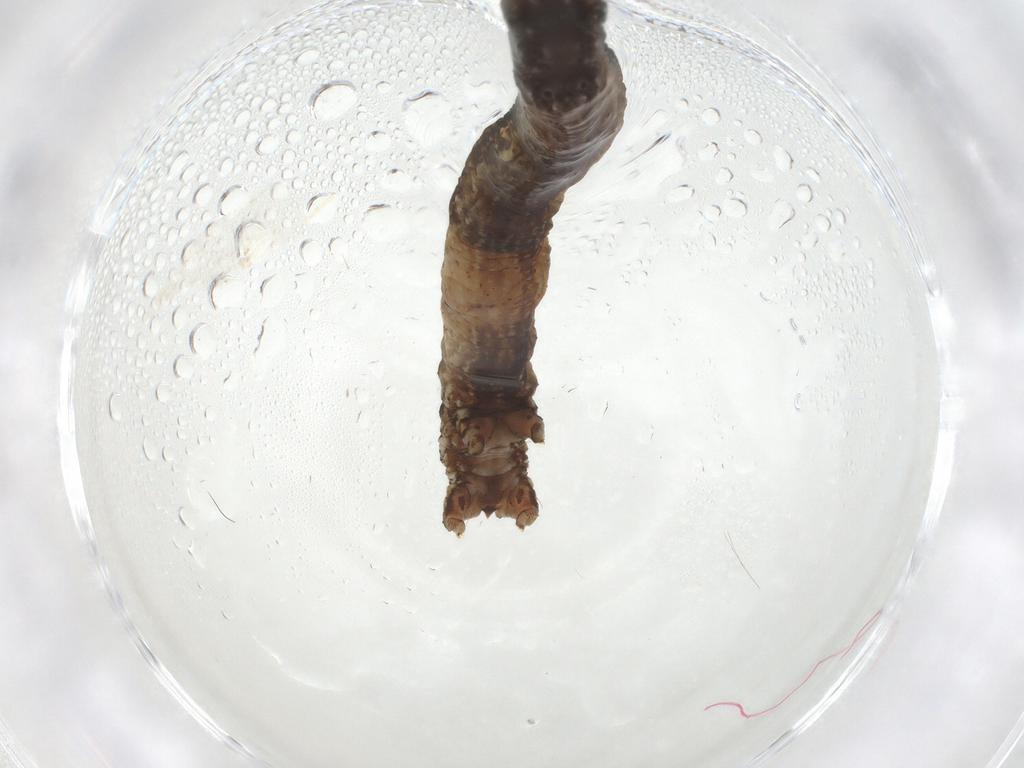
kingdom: Animalia
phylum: Arthropoda
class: Insecta
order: Lepidoptera
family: Geometridae
